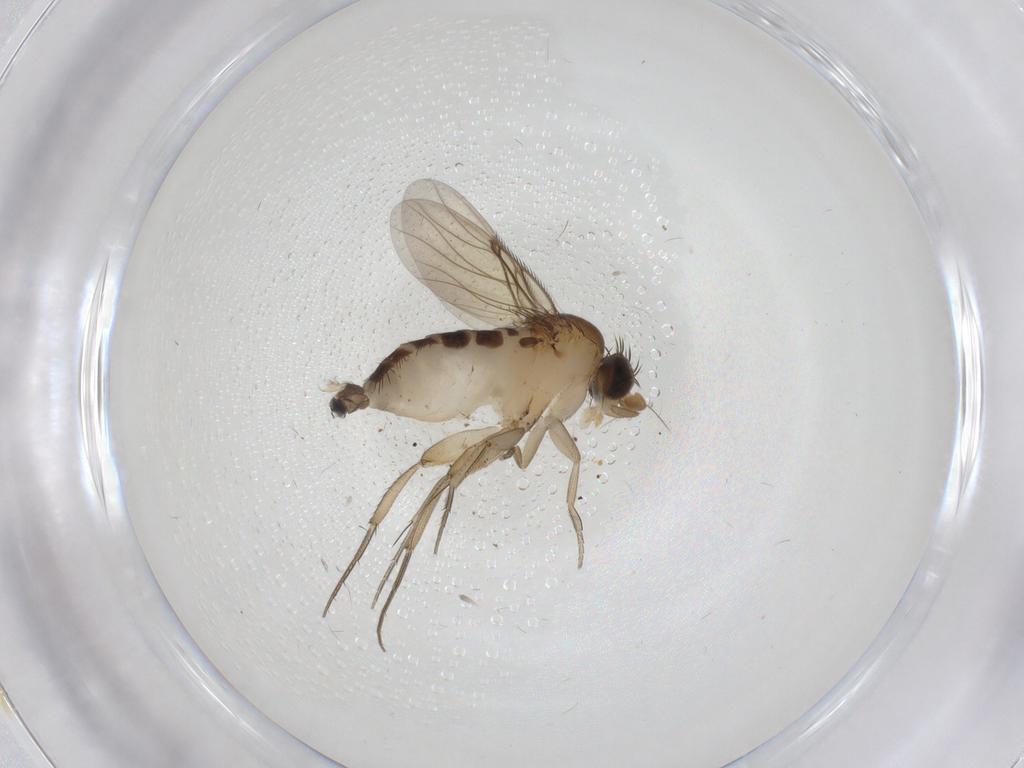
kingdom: Animalia
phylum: Arthropoda
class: Insecta
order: Diptera
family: Phoridae
